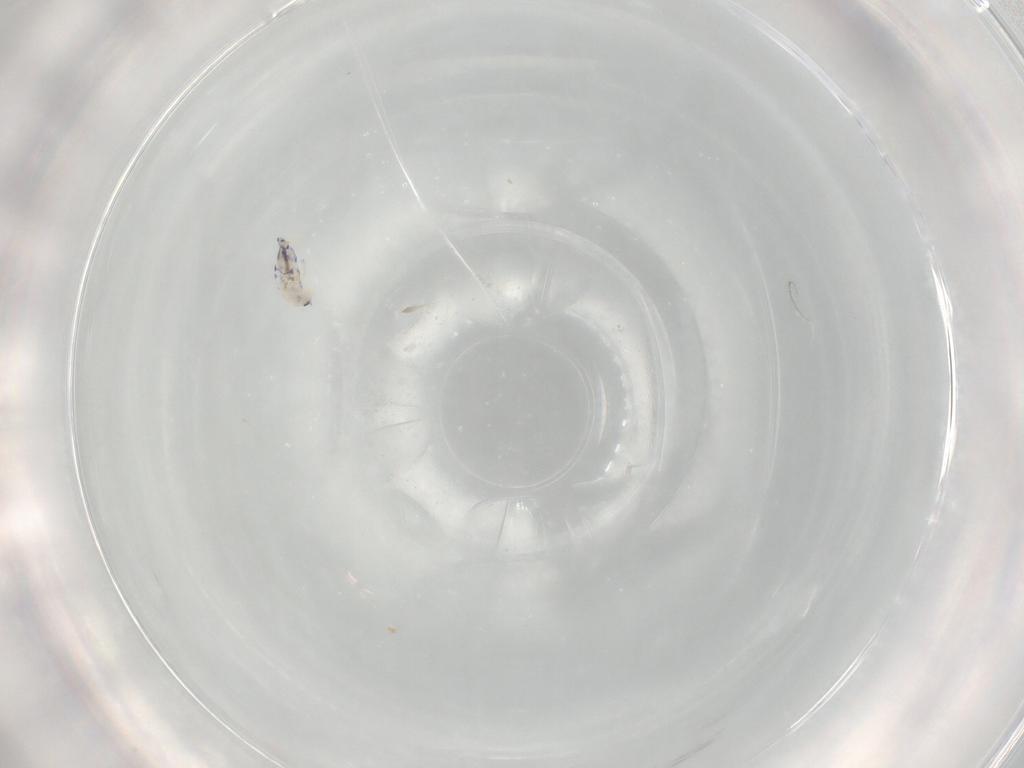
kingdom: Animalia
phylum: Arthropoda
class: Collembola
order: Entomobryomorpha
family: Entomobryidae
